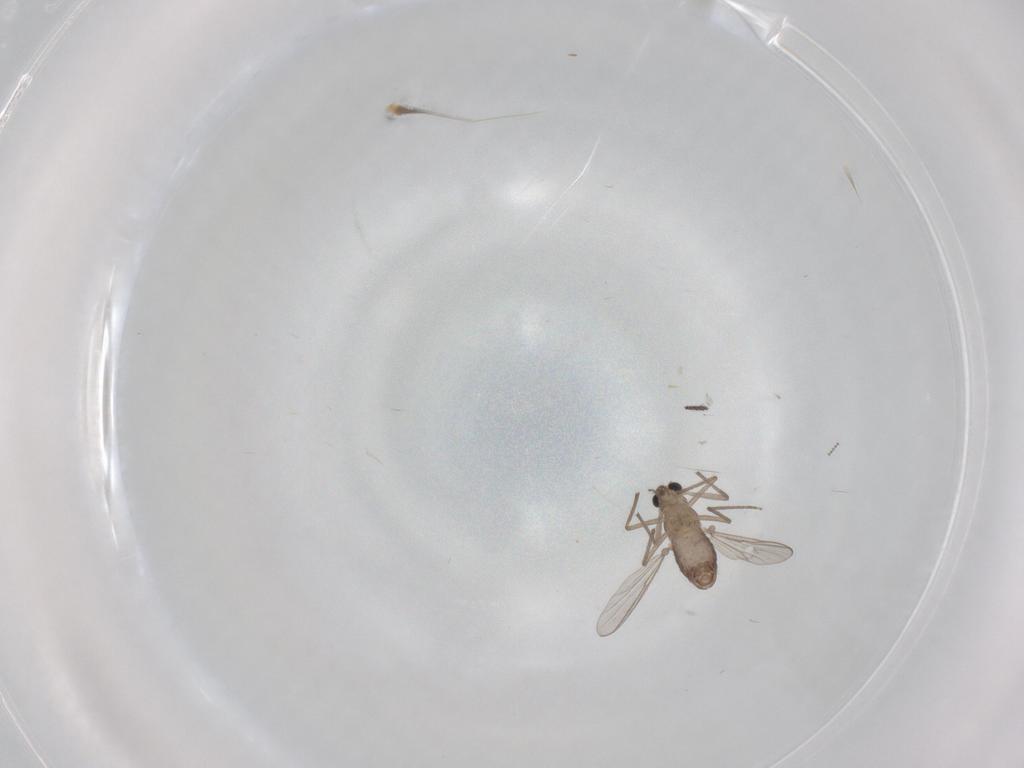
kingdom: Animalia
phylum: Arthropoda
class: Insecta
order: Diptera
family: Chironomidae
